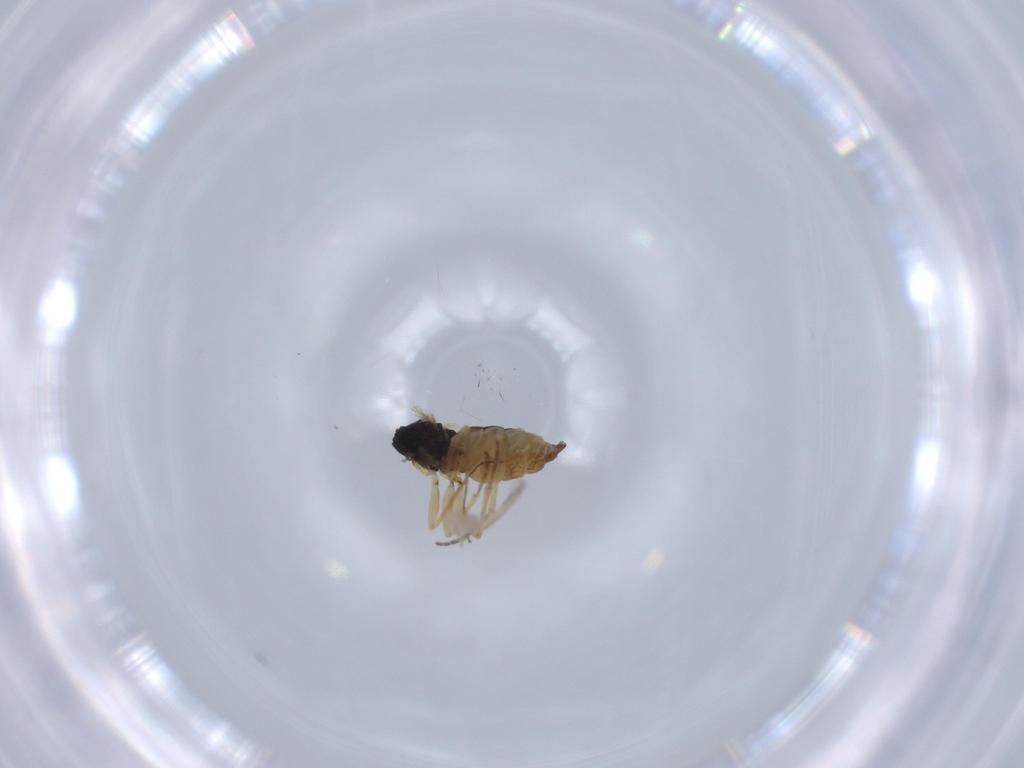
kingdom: Animalia
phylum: Arthropoda
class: Insecta
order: Diptera
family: Sciaridae
